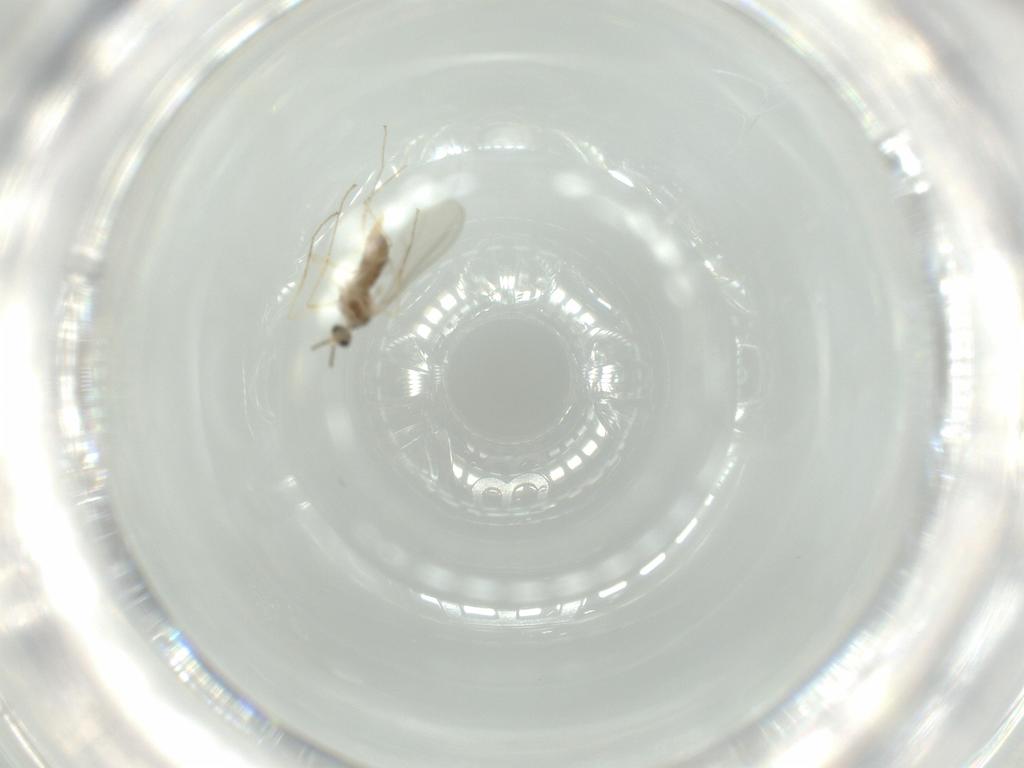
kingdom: Animalia
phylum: Arthropoda
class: Insecta
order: Diptera
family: Cecidomyiidae
